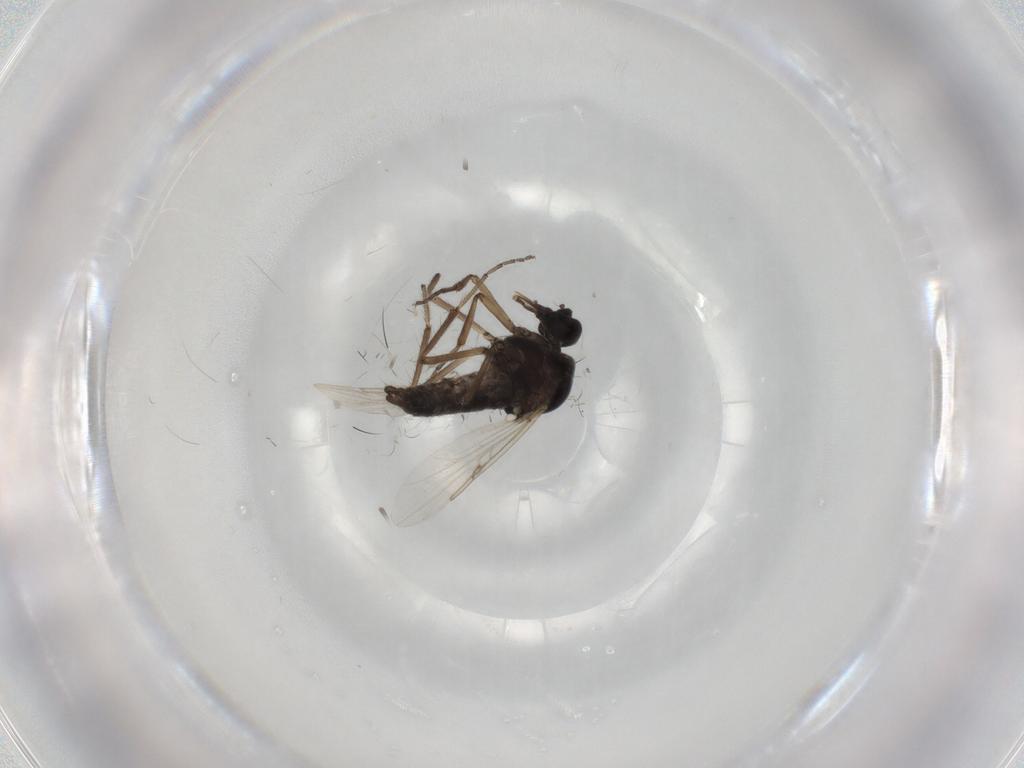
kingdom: Animalia
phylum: Arthropoda
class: Insecta
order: Diptera
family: Ceratopogonidae
